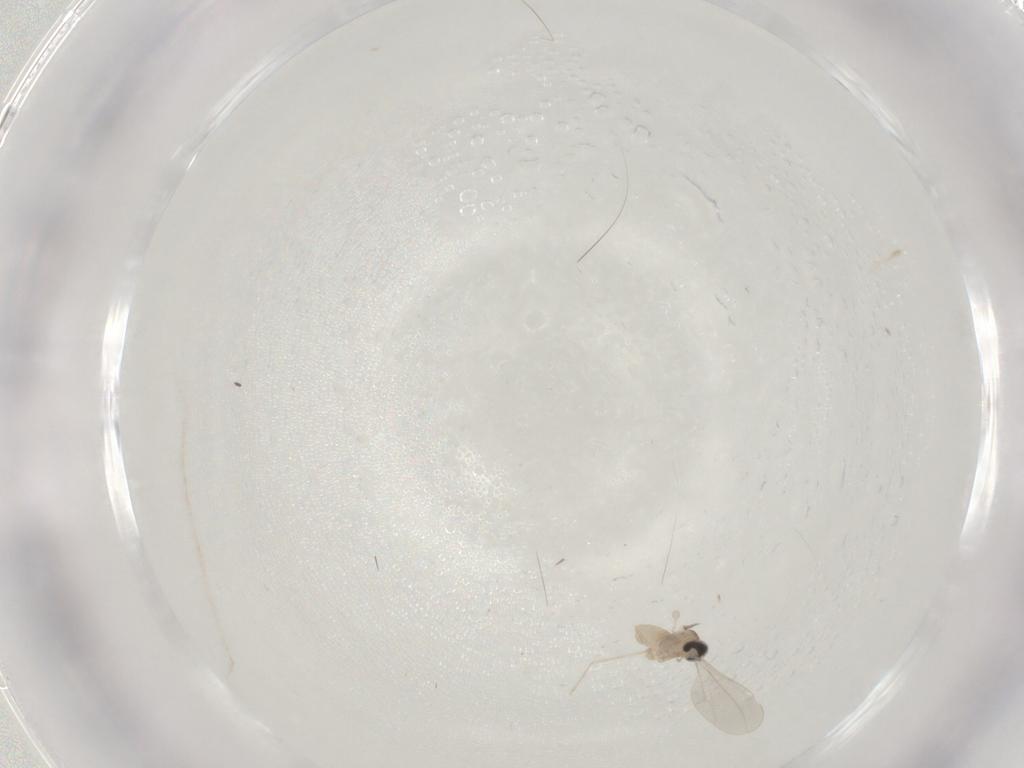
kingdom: Animalia
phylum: Arthropoda
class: Insecta
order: Diptera
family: Cecidomyiidae
